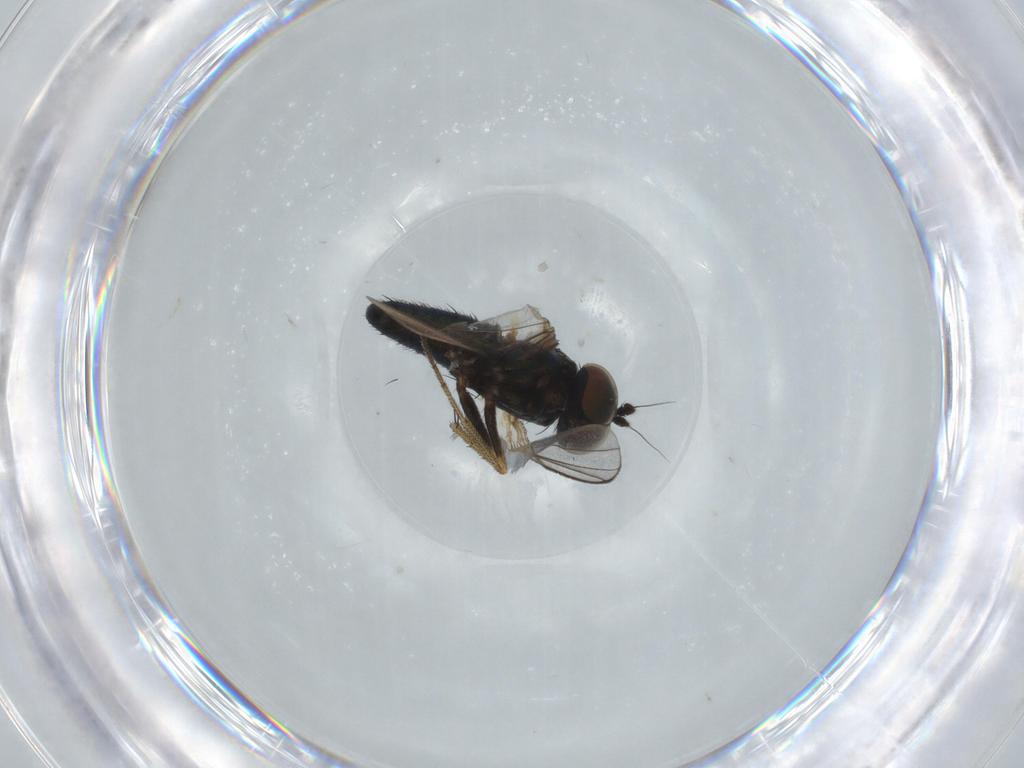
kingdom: Animalia
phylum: Arthropoda
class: Insecta
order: Diptera
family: Dolichopodidae
